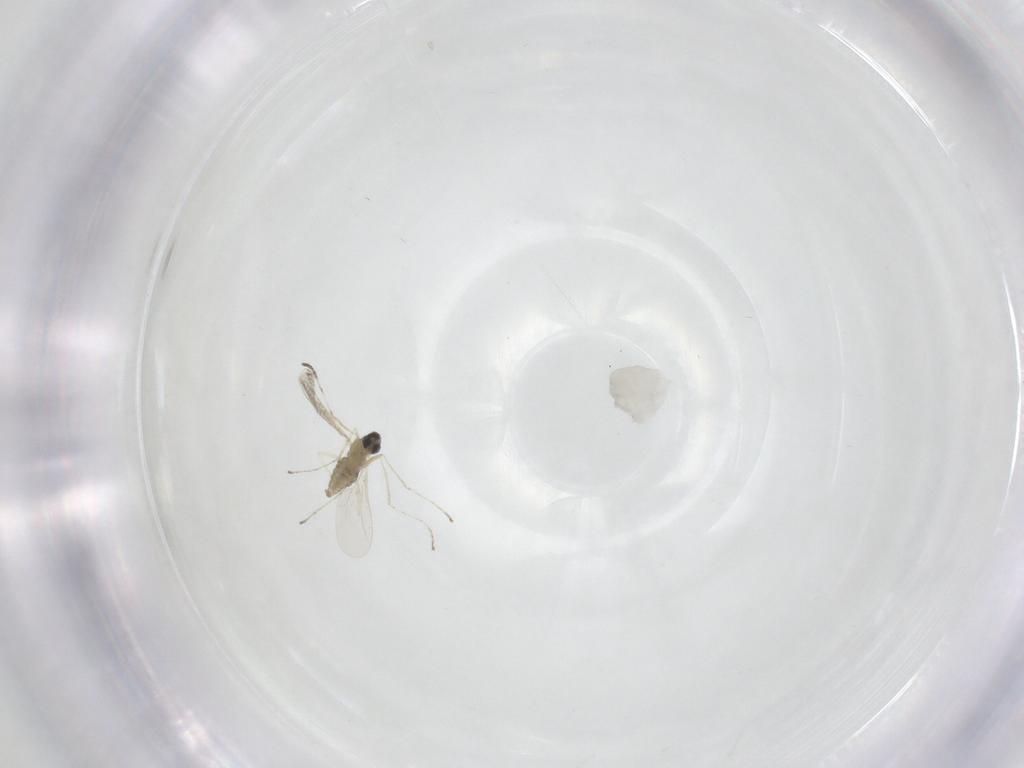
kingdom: Animalia
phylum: Arthropoda
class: Insecta
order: Diptera
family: Cecidomyiidae
